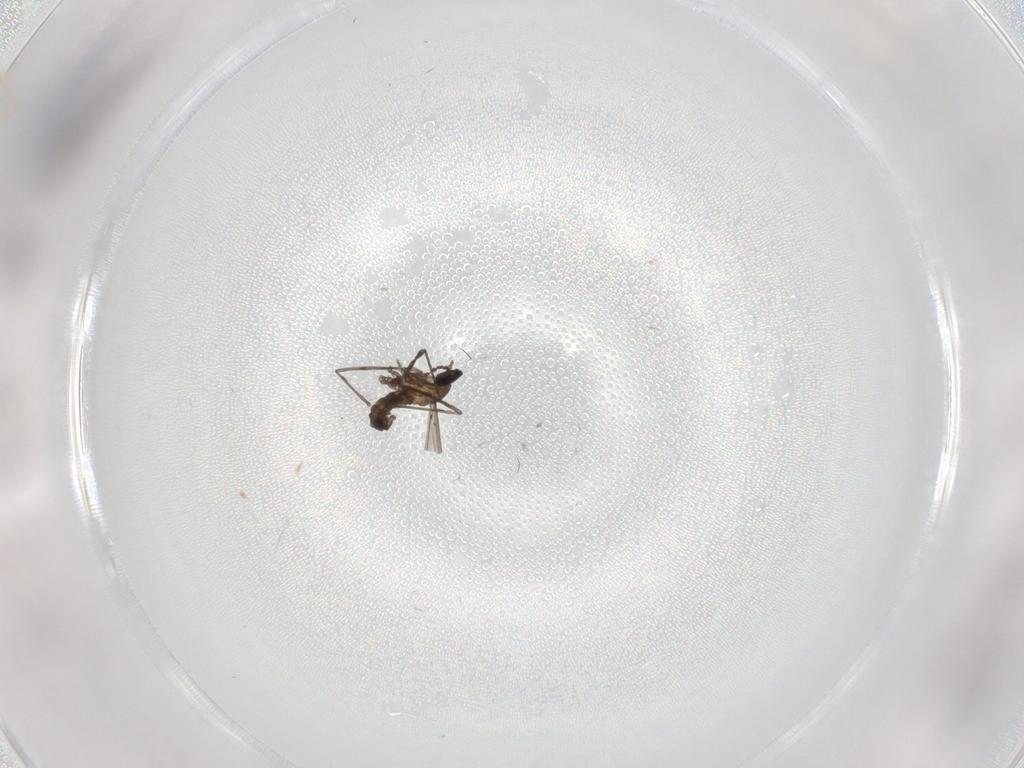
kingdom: Animalia
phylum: Arthropoda
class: Insecta
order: Diptera
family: Chironomidae
